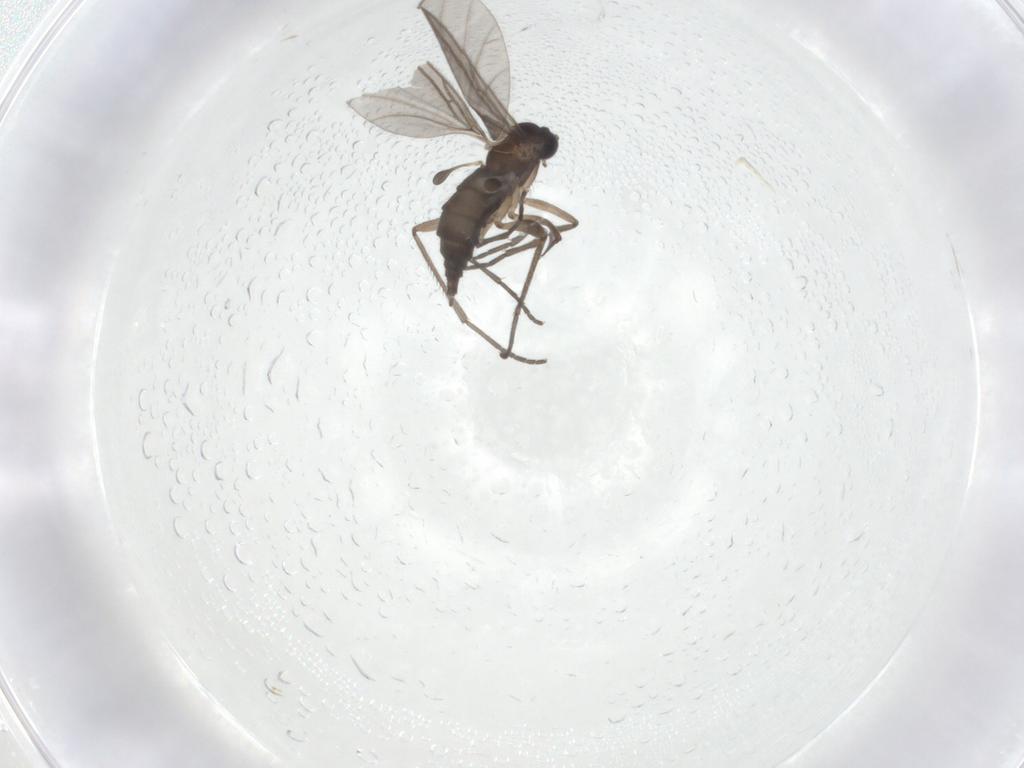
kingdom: Animalia
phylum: Arthropoda
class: Insecta
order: Diptera
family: Sciaridae
